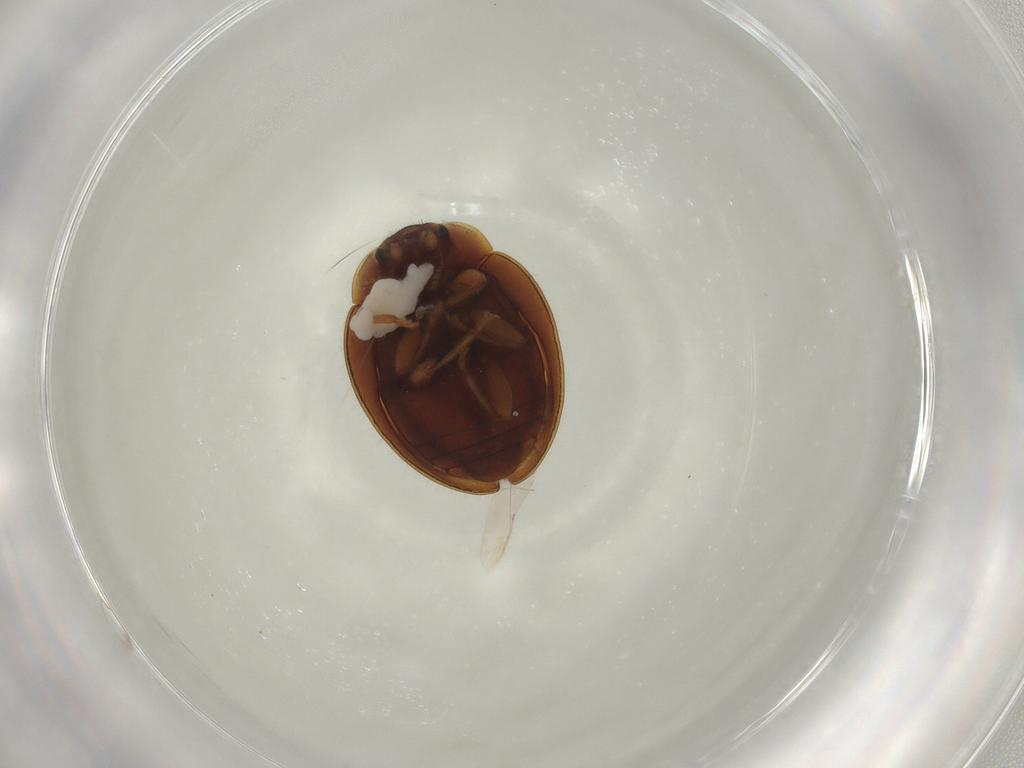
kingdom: Animalia
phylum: Arthropoda
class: Insecta
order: Coleoptera
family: Coccinellidae
